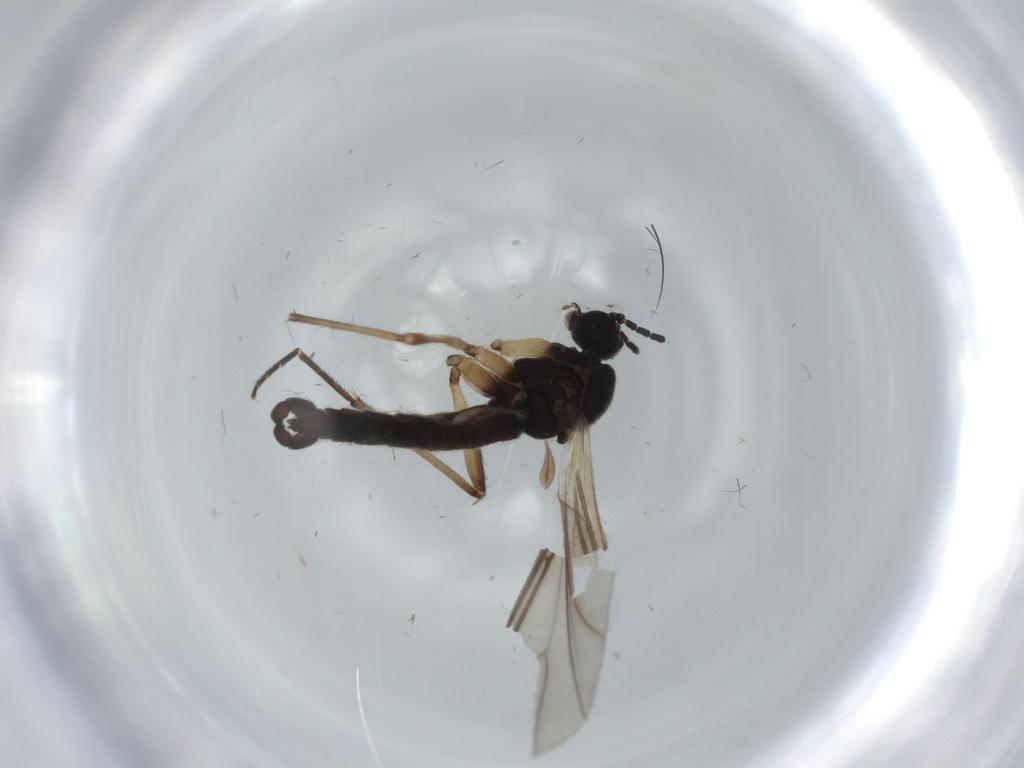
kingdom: Animalia
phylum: Arthropoda
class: Insecta
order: Diptera
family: Sciaridae
